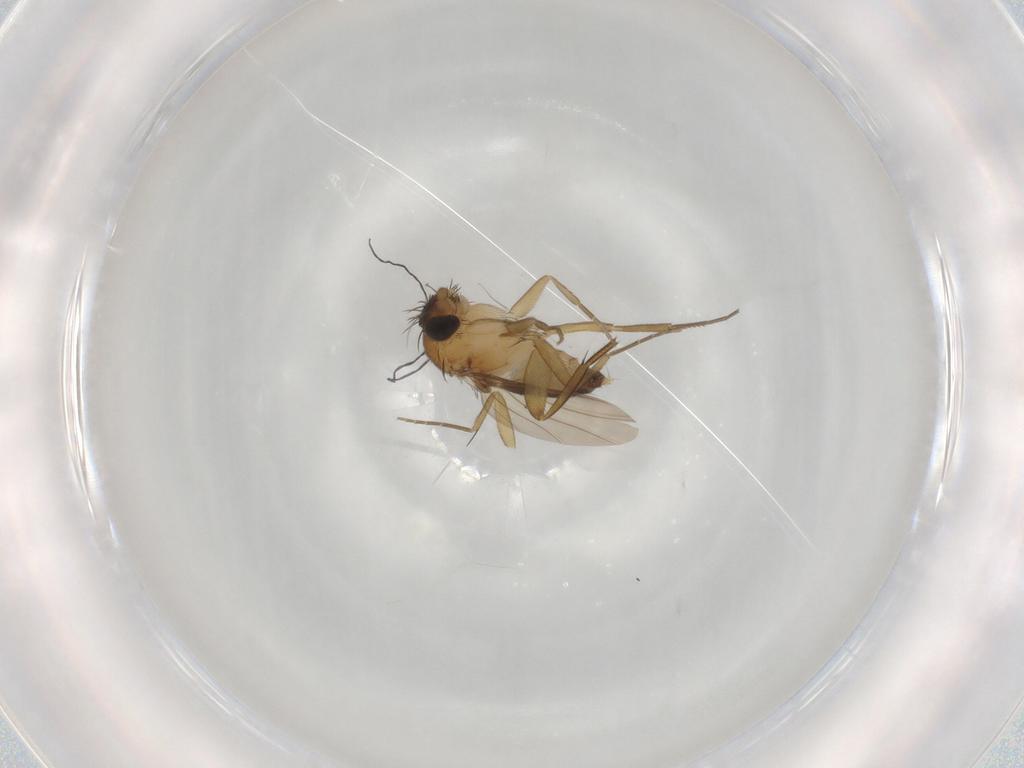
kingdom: Animalia
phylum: Arthropoda
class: Insecta
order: Diptera
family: Phoridae
